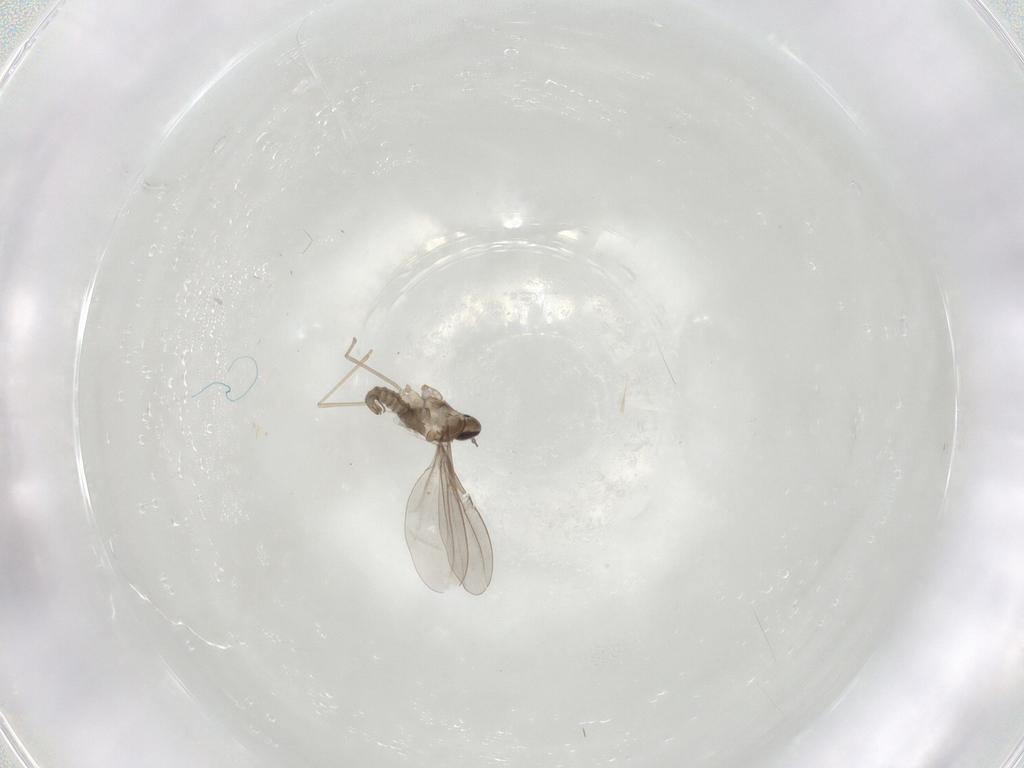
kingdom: Animalia
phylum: Arthropoda
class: Insecta
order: Diptera
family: Cecidomyiidae
